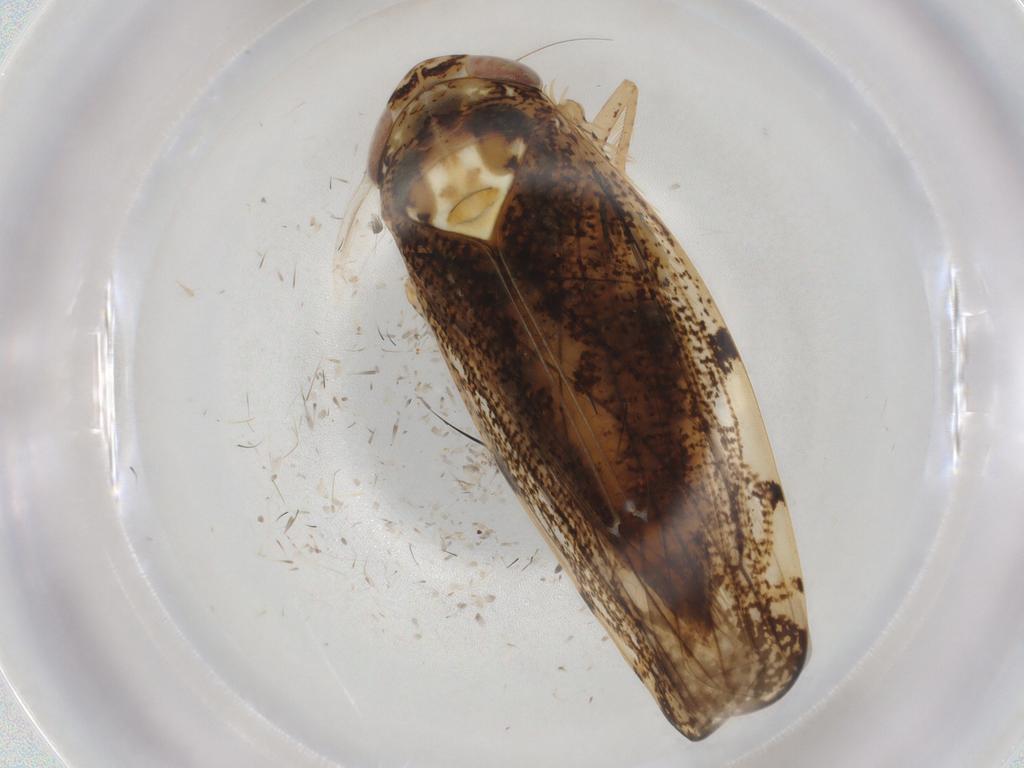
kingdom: Animalia
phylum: Arthropoda
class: Insecta
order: Hemiptera
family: Cicadellidae
